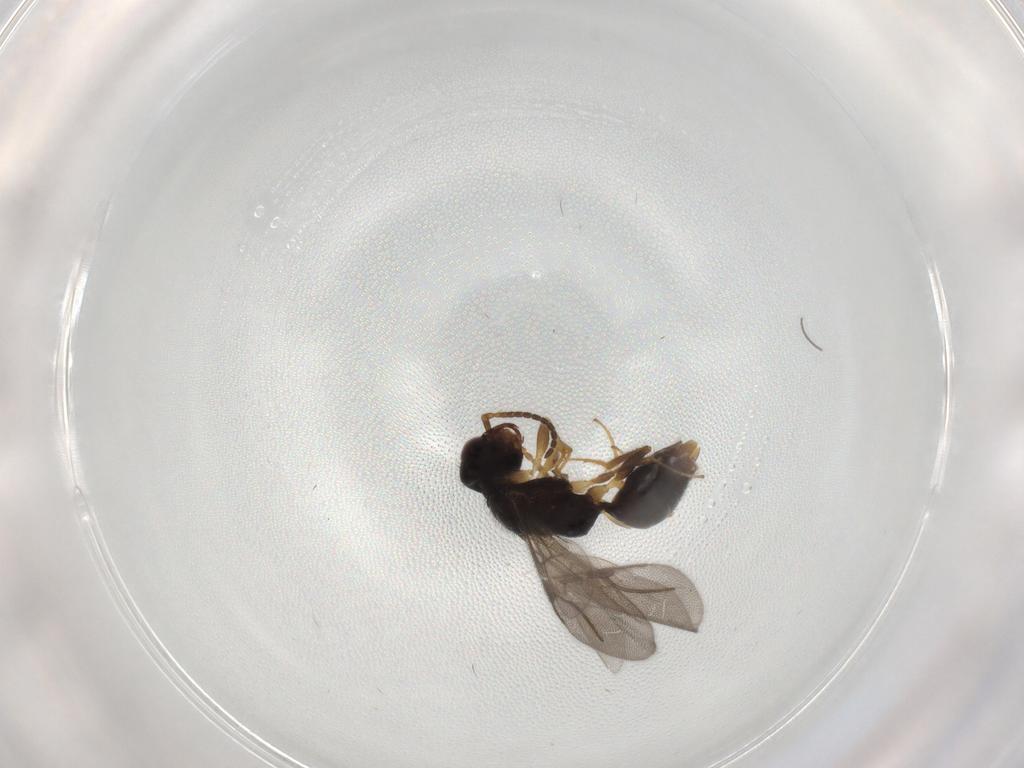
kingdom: Animalia
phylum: Arthropoda
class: Insecta
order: Hymenoptera
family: Bethylidae
